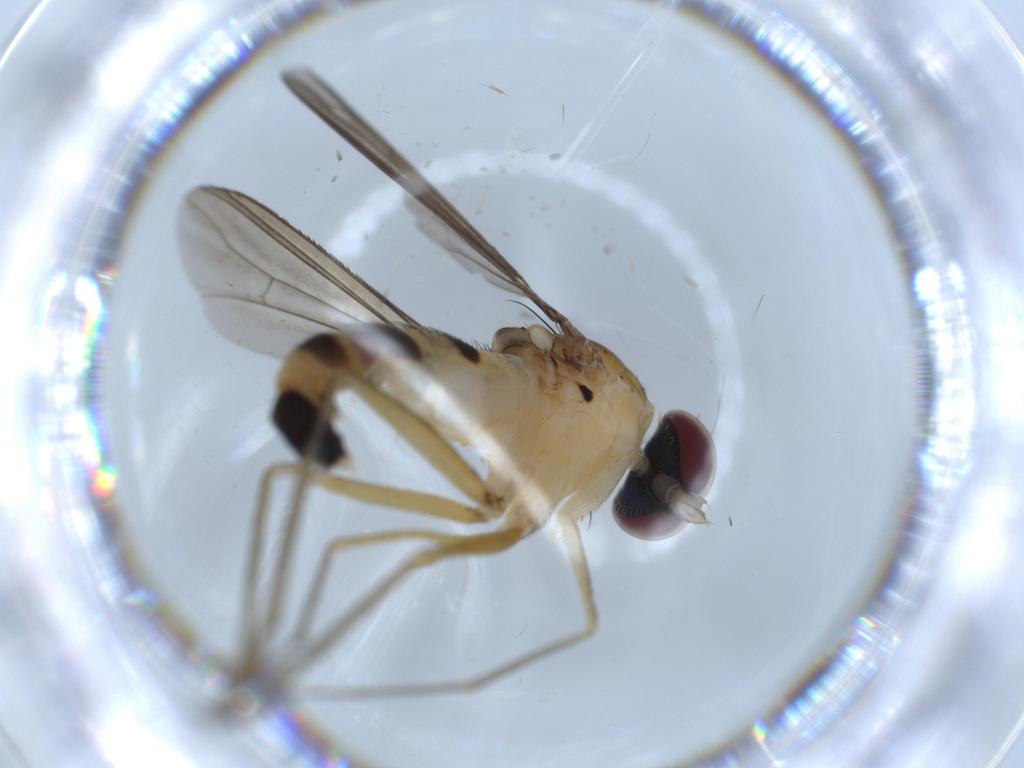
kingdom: Animalia
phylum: Arthropoda
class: Insecta
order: Diptera
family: Dolichopodidae
